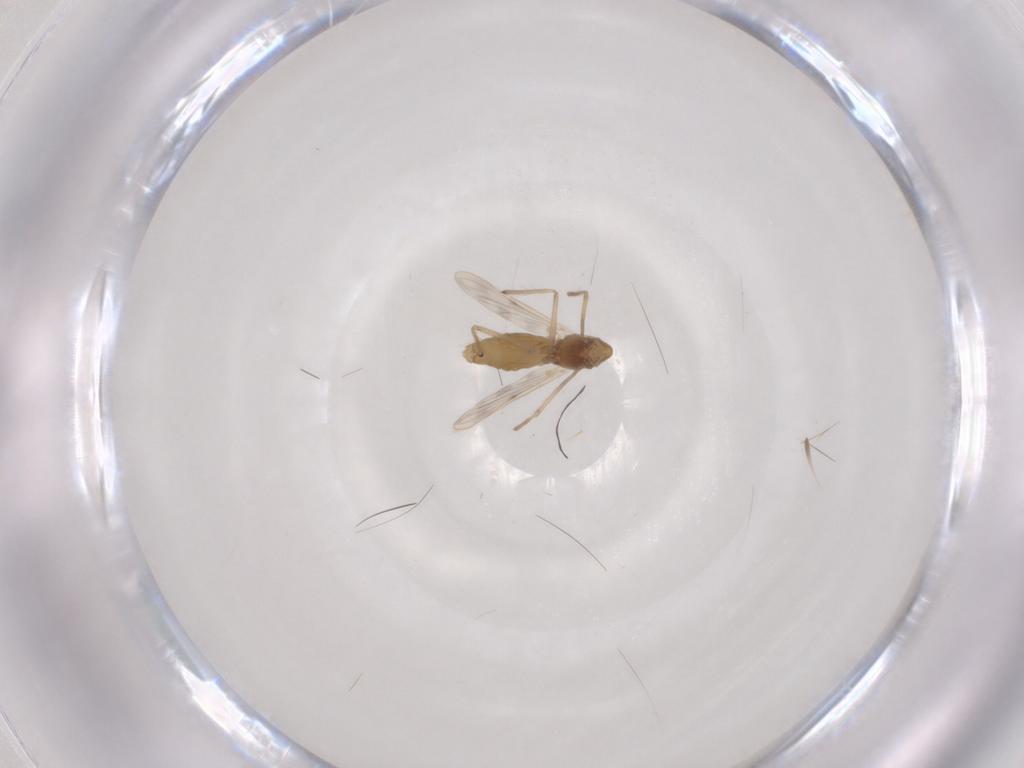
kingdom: Animalia
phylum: Arthropoda
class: Insecta
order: Diptera
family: Chironomidae
